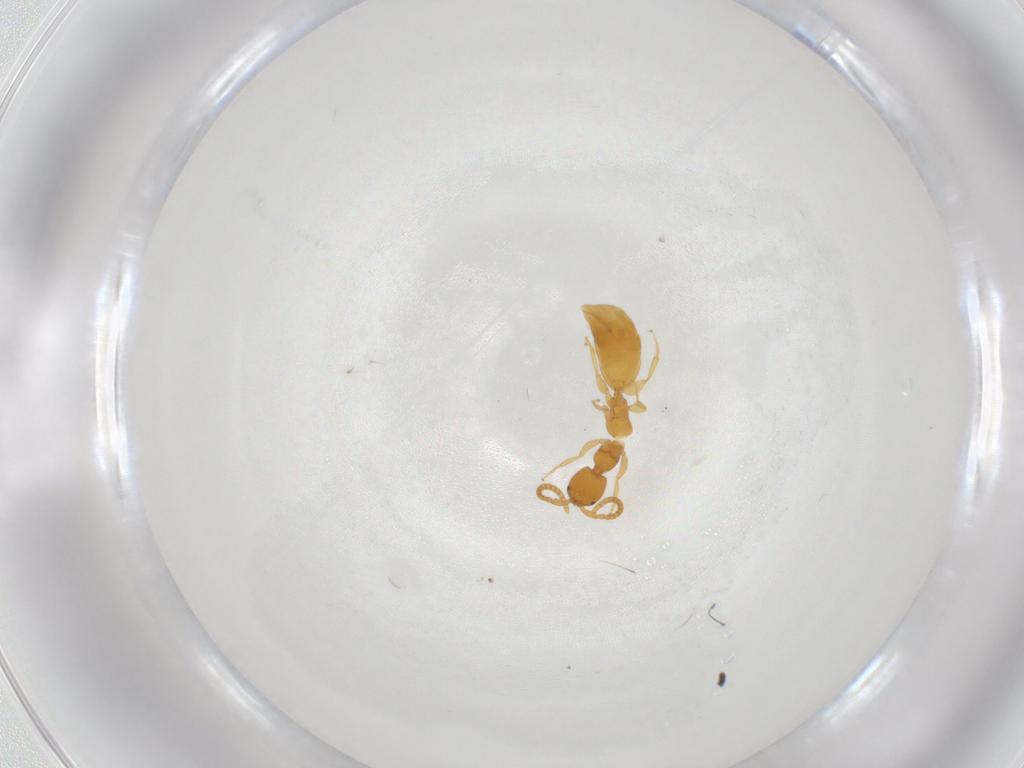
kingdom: Animalia
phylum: Arthropoda
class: Insecta
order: Hymenoptera
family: Bethylidae
